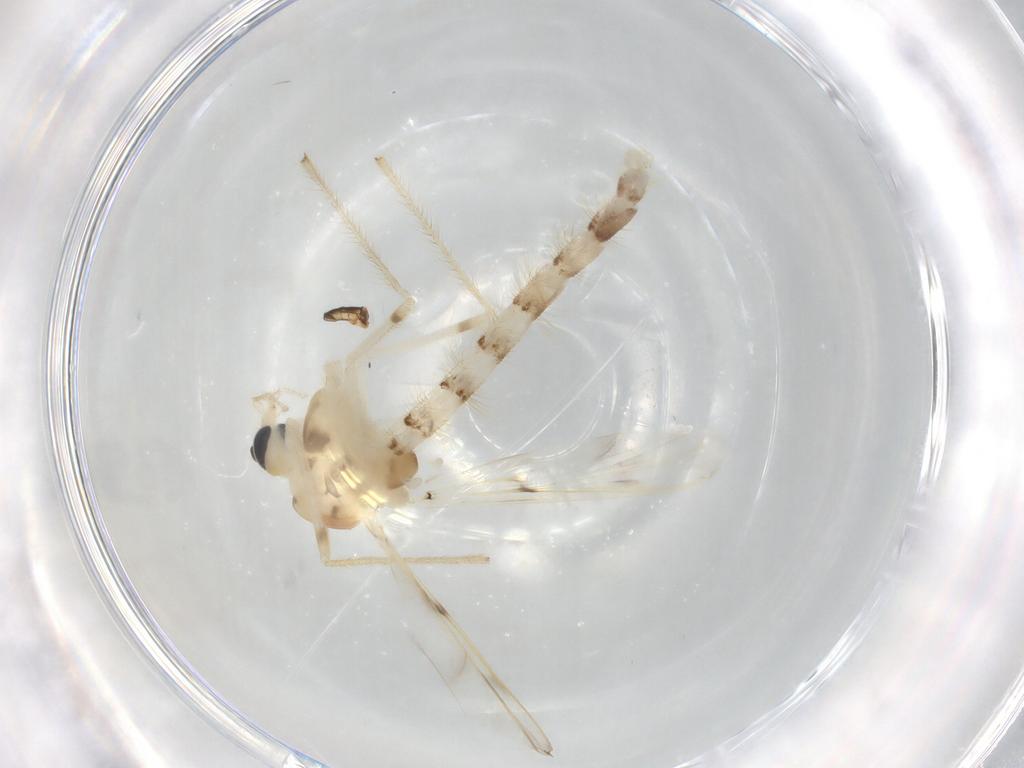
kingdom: Animalia
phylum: Arthropoda
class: Insecta
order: Diptera
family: Chironomidae
